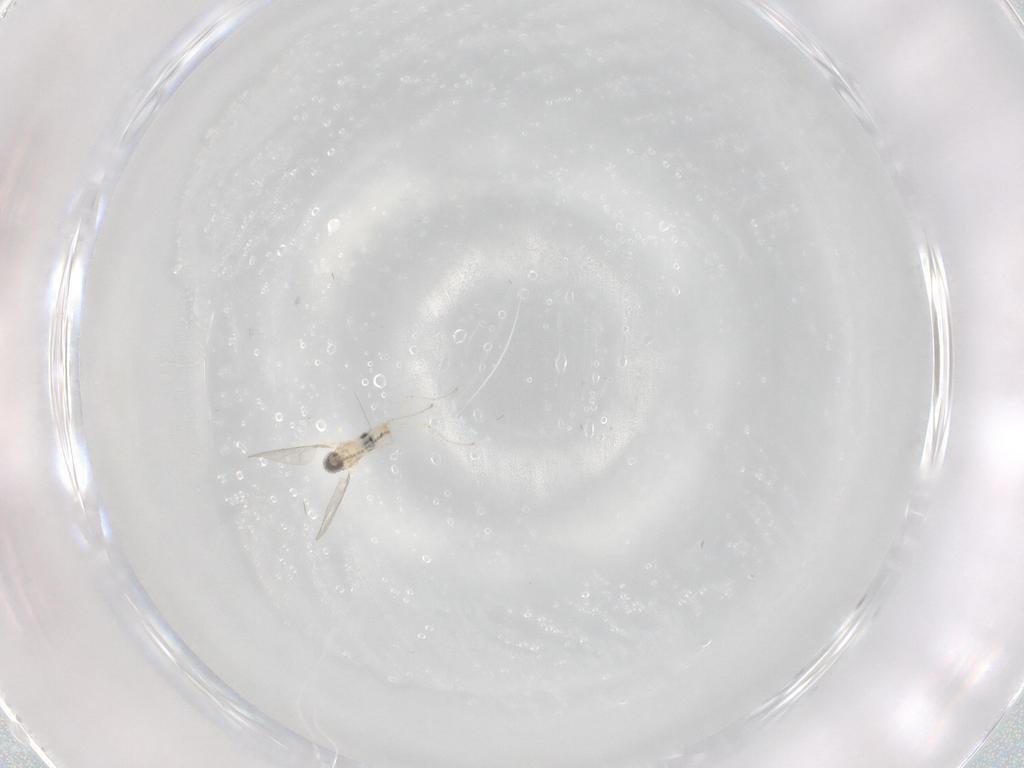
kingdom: Animalia
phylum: Arthropoda
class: Insecta
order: Diptera
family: Cecidomyiidae
